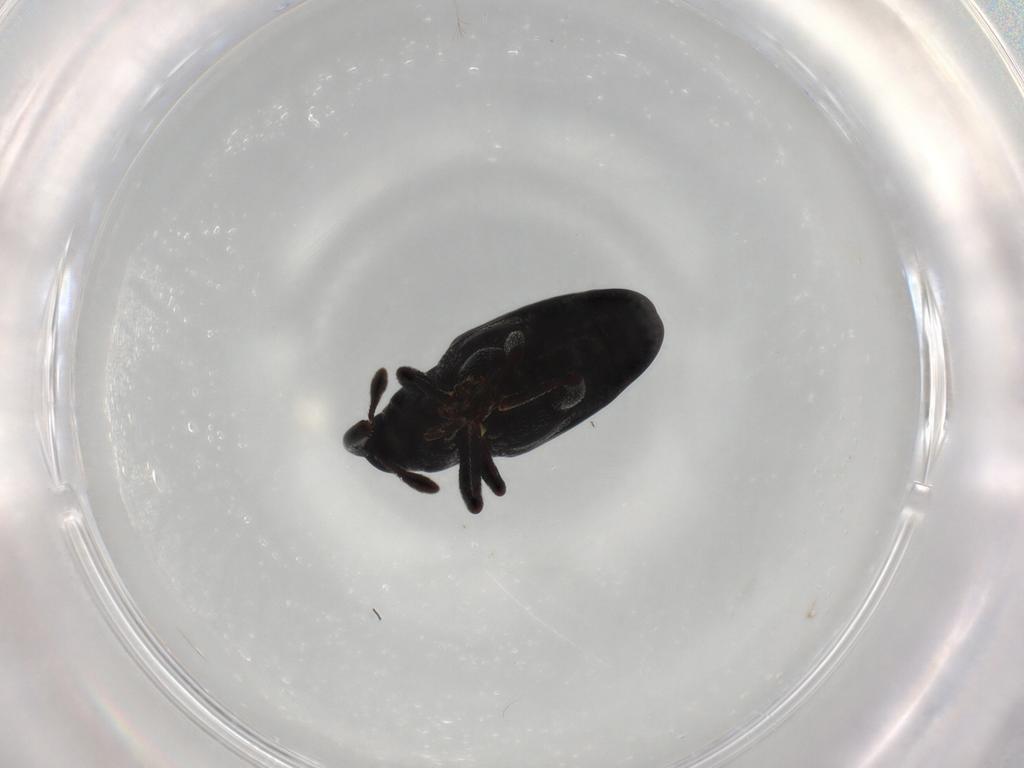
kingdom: Animalia
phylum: Arthropoda
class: Insecta
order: Coleoptera
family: Curculionidae
